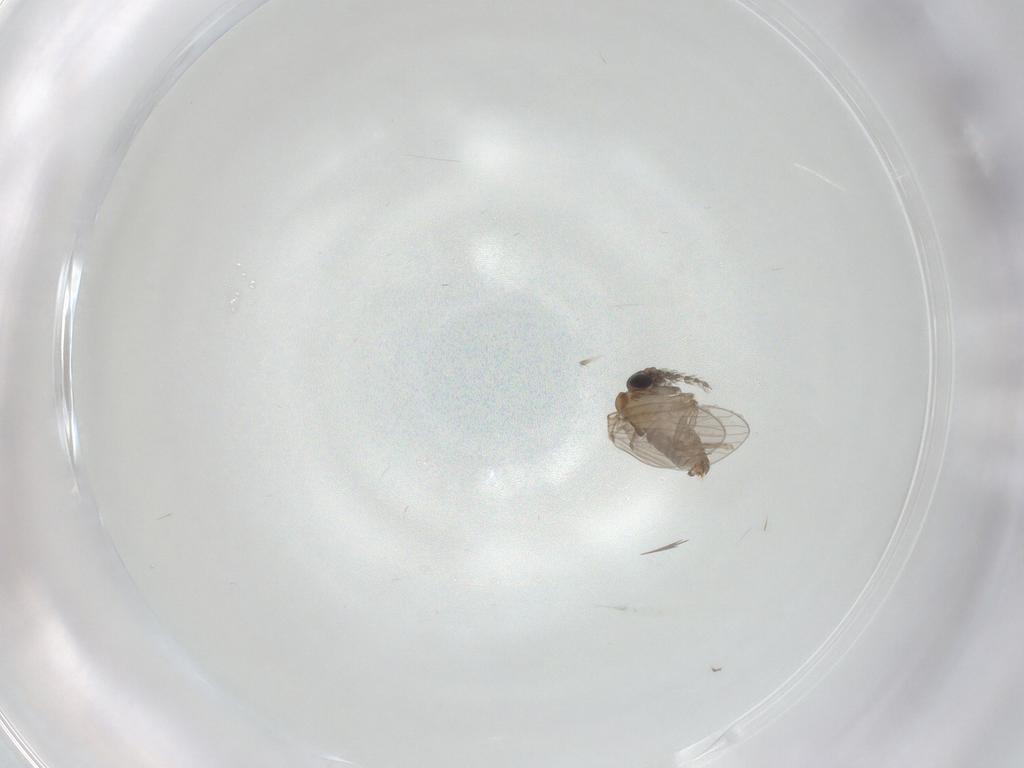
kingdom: Animalia
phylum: Arthropoda
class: Insecta
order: Diptera
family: Psychodidae
